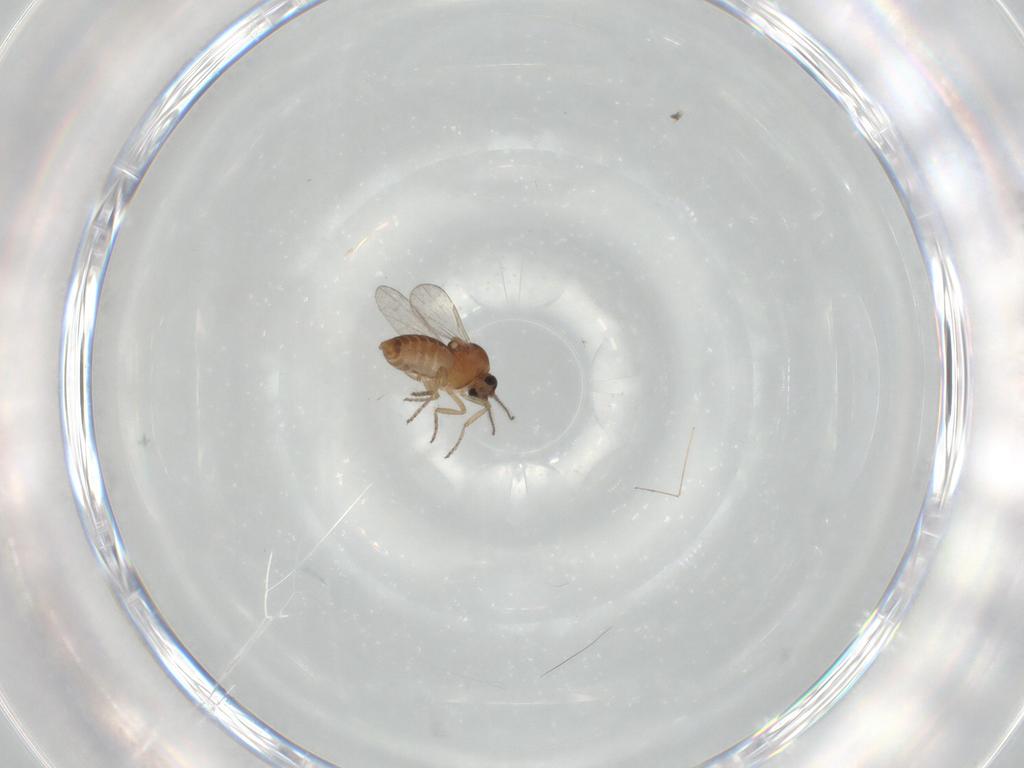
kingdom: Animalia
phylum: Arthropoda
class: Insecta
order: Diptera
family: Ceratopogonidae
